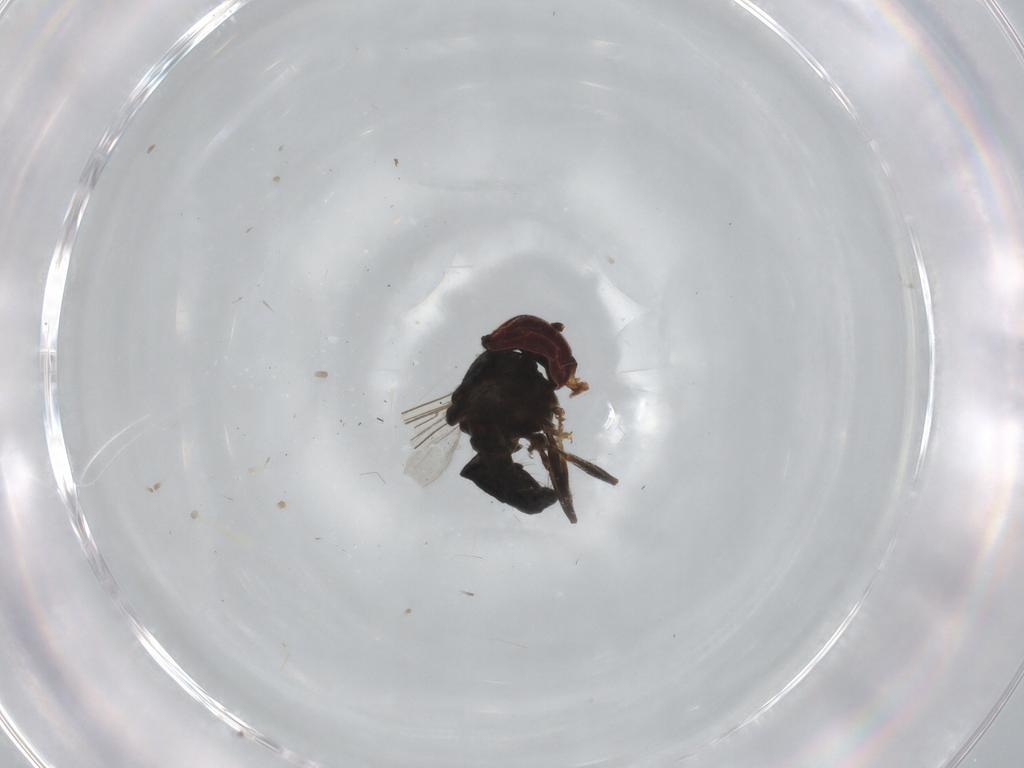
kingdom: Animalia
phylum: Arthropoda
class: Insecta
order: Diptera
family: Pipunculidae
